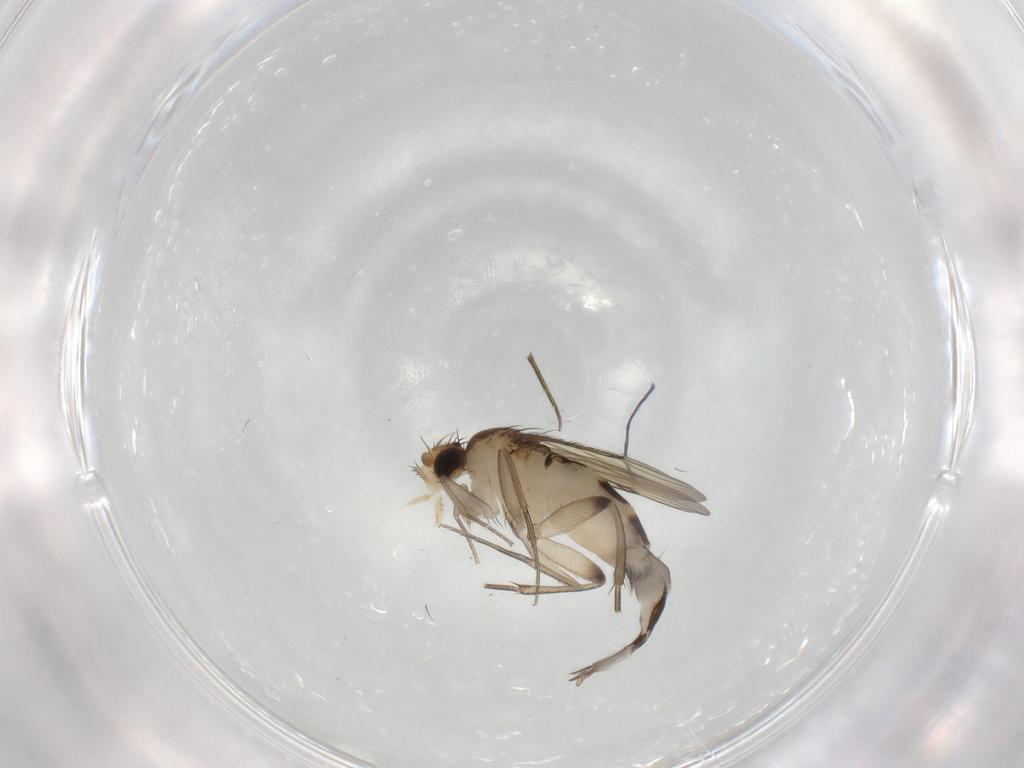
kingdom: Animalia
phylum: Arthropoda
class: Insecta
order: Diptera
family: Phoridae
